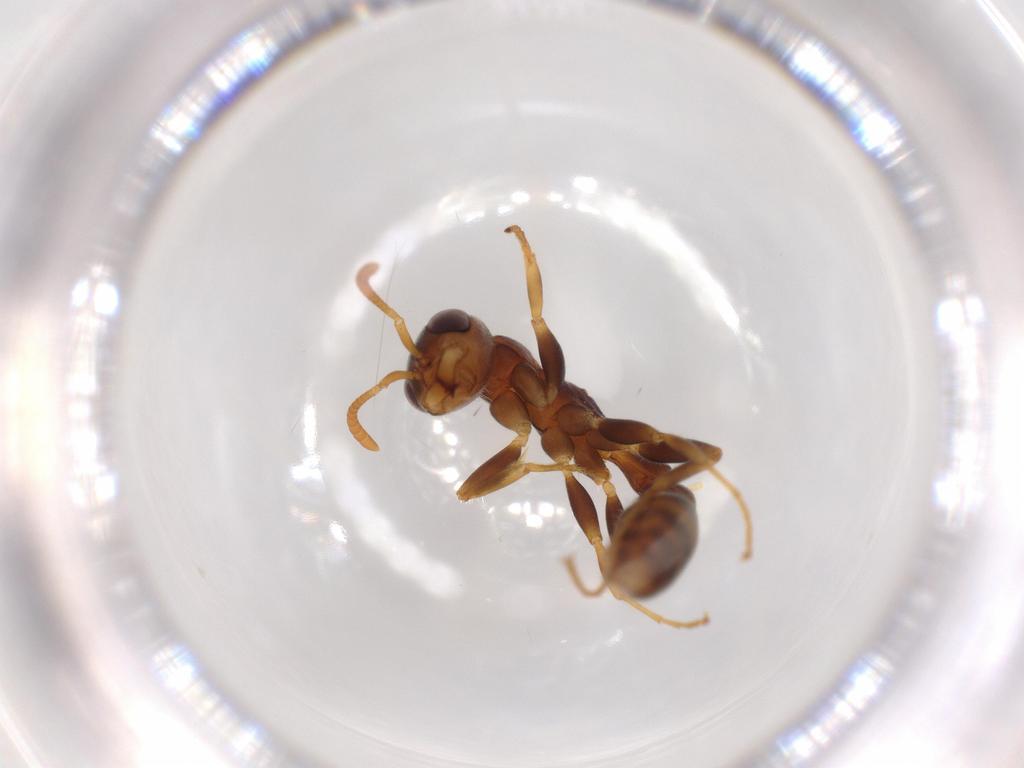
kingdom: Animalia
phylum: Arthropoda
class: Insecta
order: Hymenoptera
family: Formicidae
